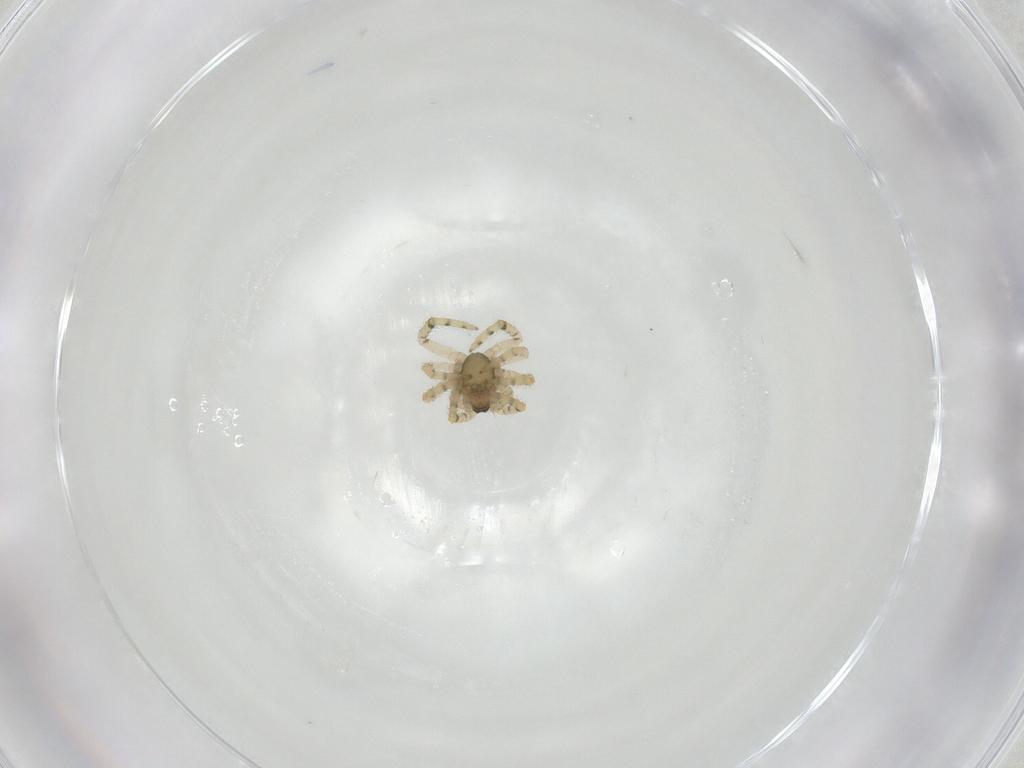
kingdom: Animalia
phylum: Arthropoda
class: Arachnida
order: Araneae
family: Theridiidae
